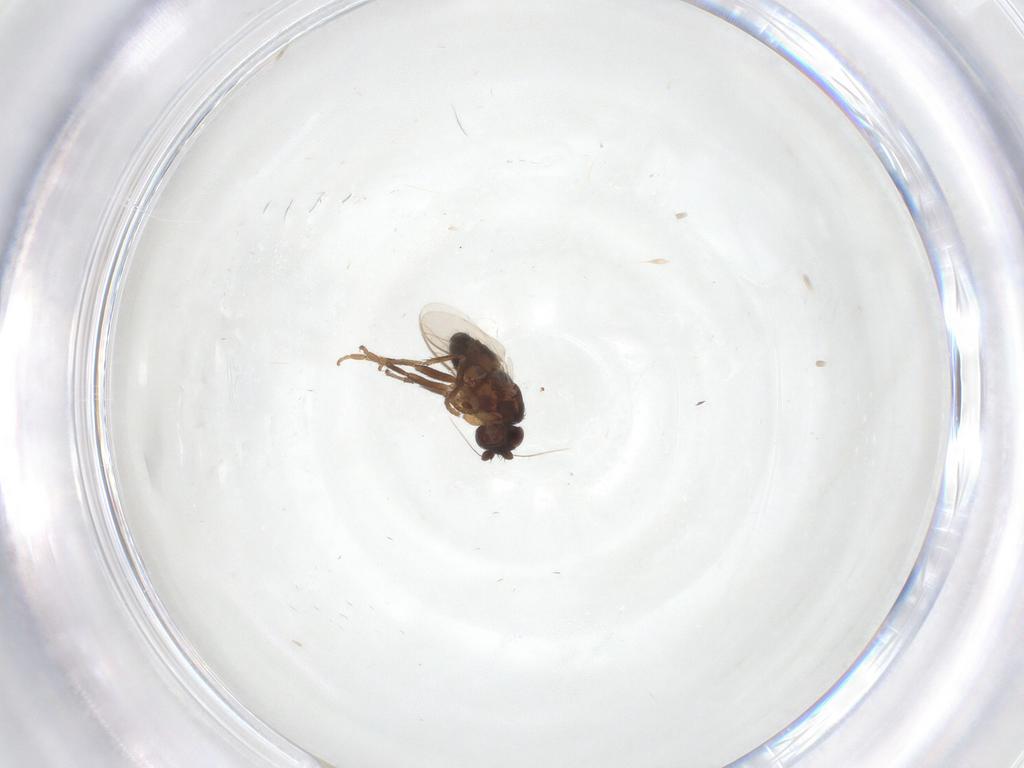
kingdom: Animalia
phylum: Arthropoda
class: Insecta
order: Diptera
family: Sphaeroceridae
